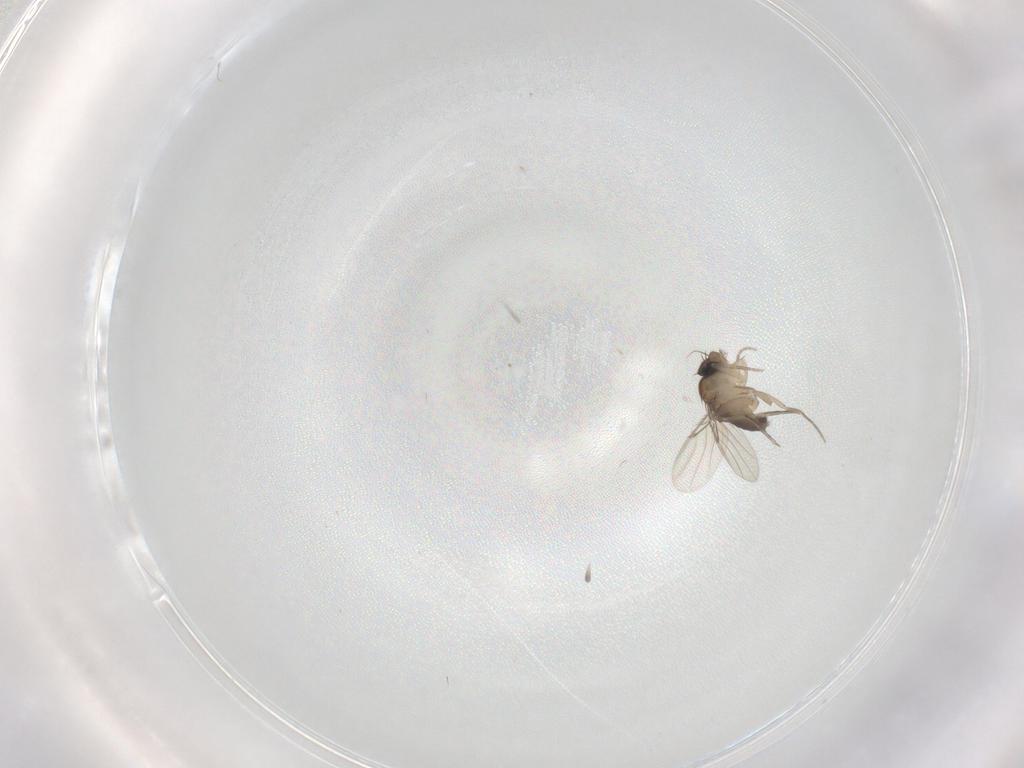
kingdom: Animalia
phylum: Arthropoda
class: Insecta
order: Diptera
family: Phoridae
